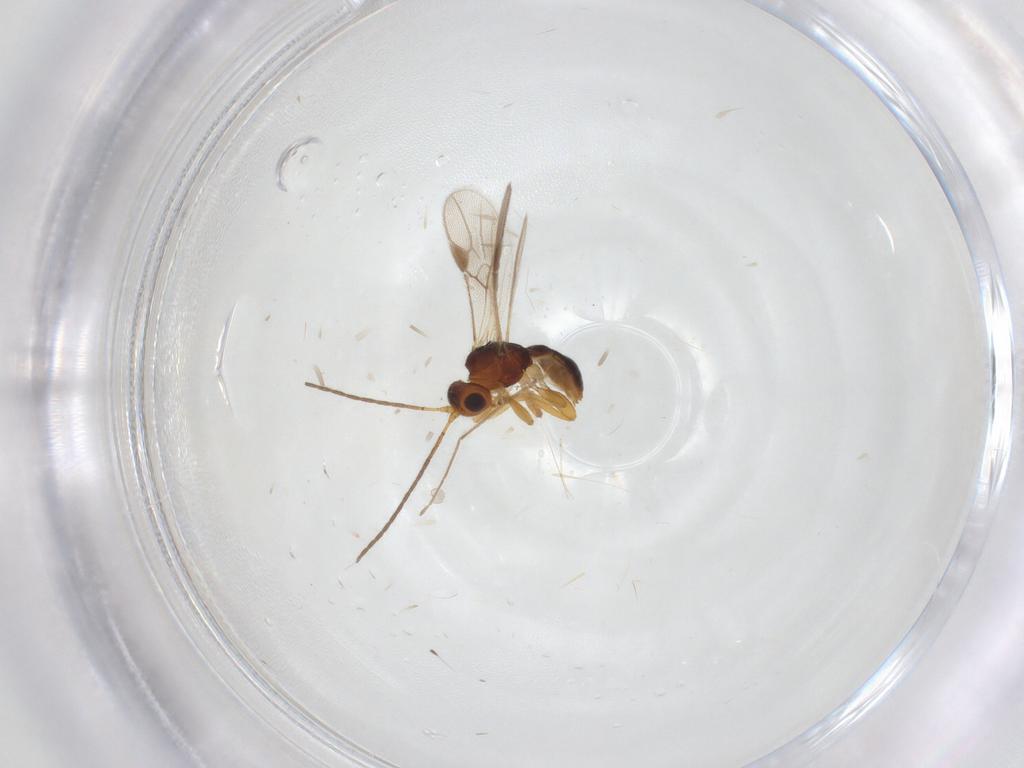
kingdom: Animalia
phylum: Arthropoda
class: Insecta
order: Hymenoptera
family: Braconidae
